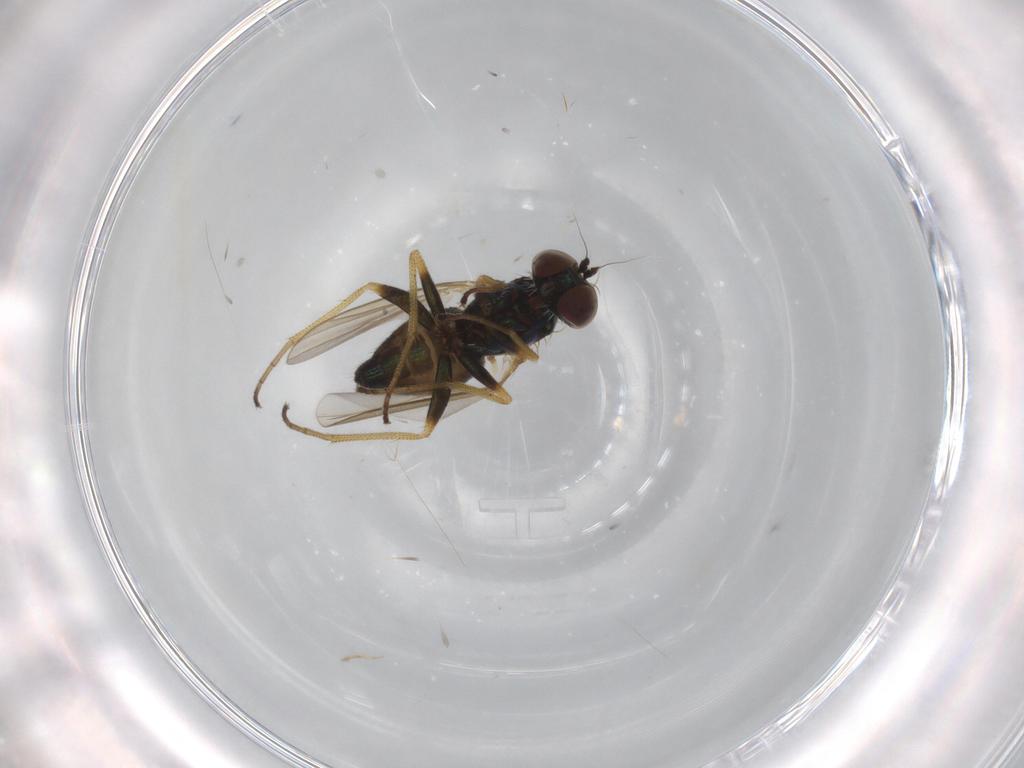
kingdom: Animalia
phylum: Arthropoda
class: Insecta
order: Diptera
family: Dolichopodidae
